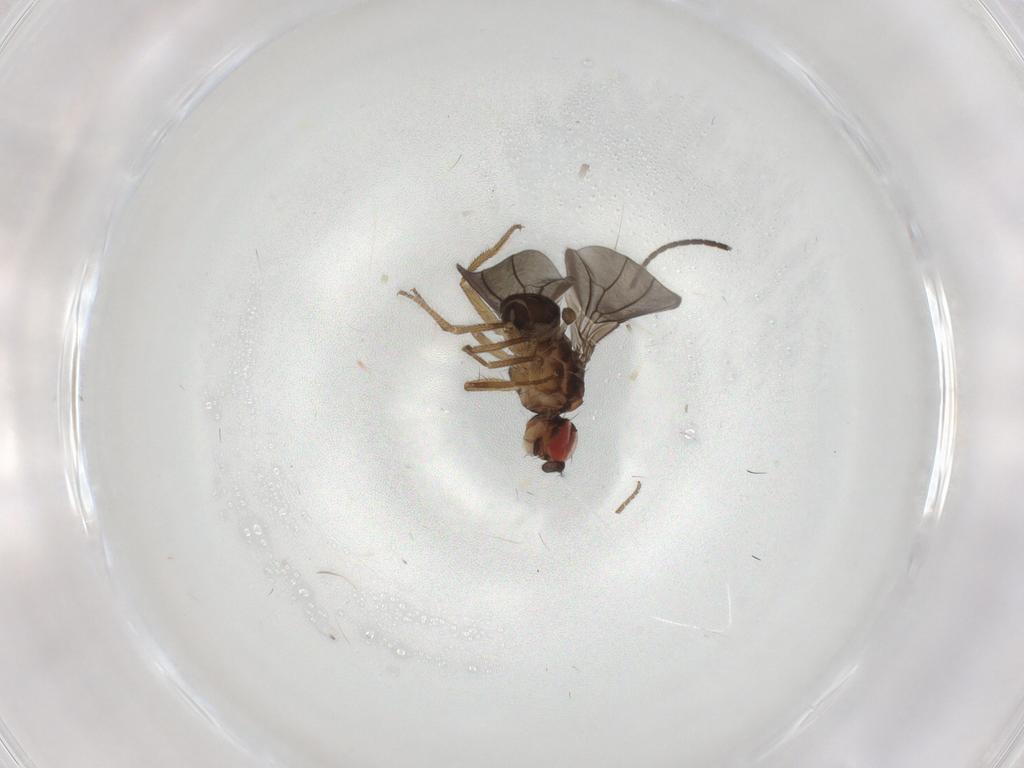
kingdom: Animalia
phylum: Arthropoda
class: Insecta
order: Diptera
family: Drosophilidae
